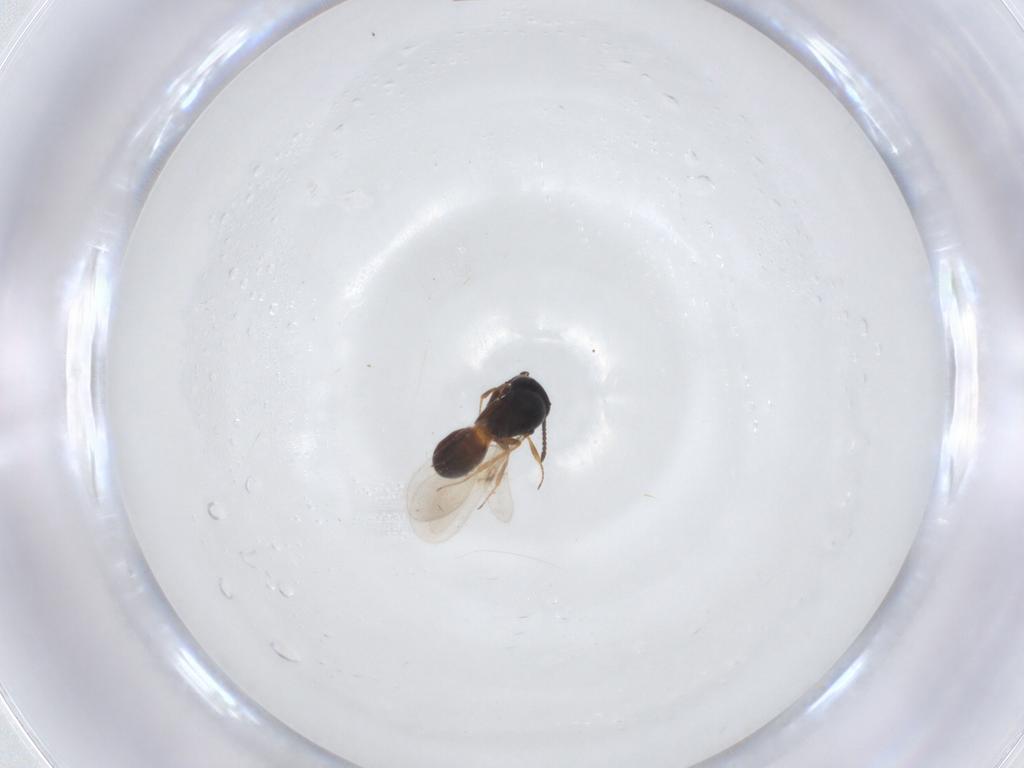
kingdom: Animalia
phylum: Arthropoda
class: Insecta
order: Hymenoptera
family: Scelionidae
